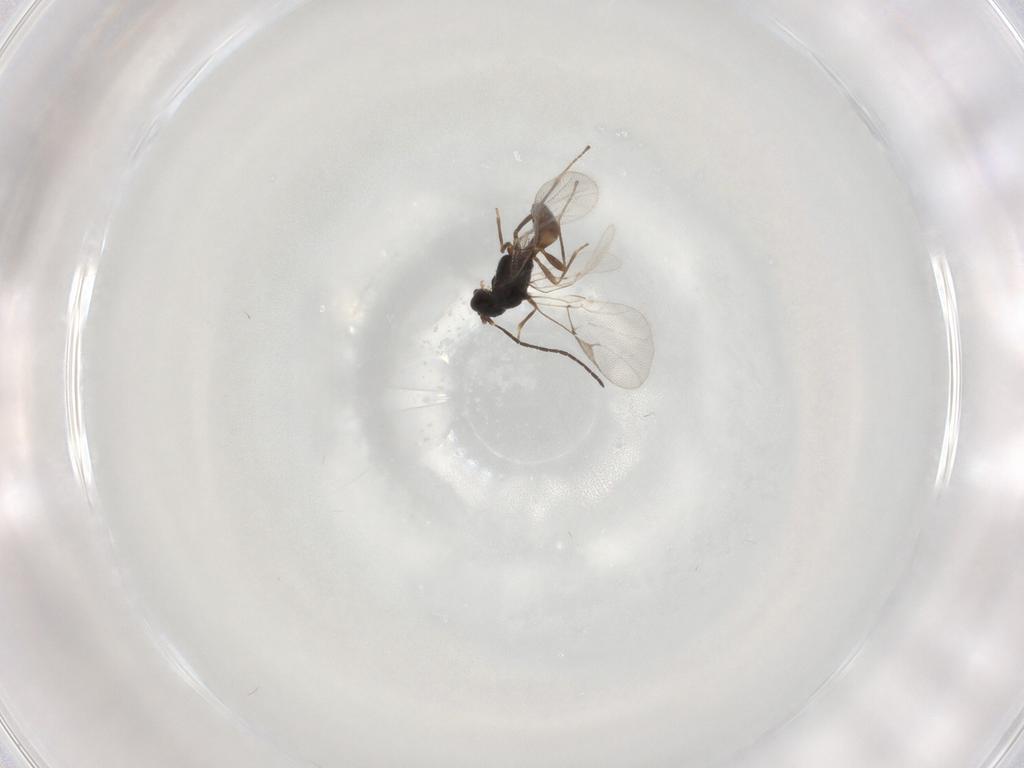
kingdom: Animalia
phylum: Arthropoda
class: Insecta
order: Hymenoptera
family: Braconidae
